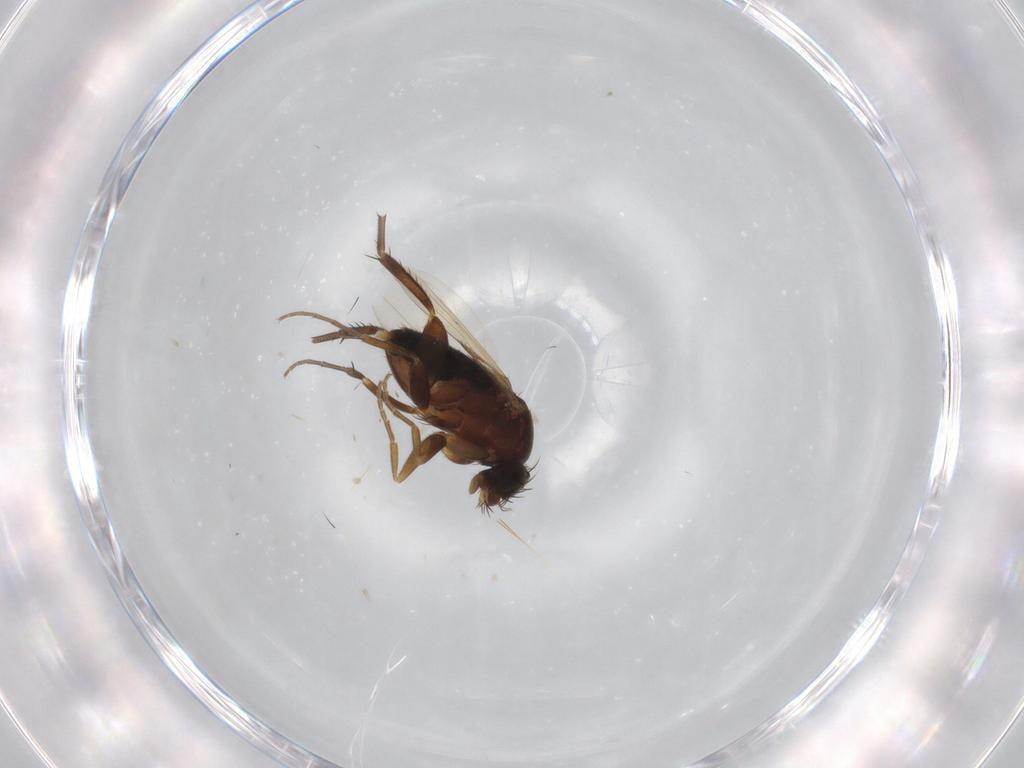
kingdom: Animalia
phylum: Arthropoda
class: Insecta
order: Diptera
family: Phoridae
